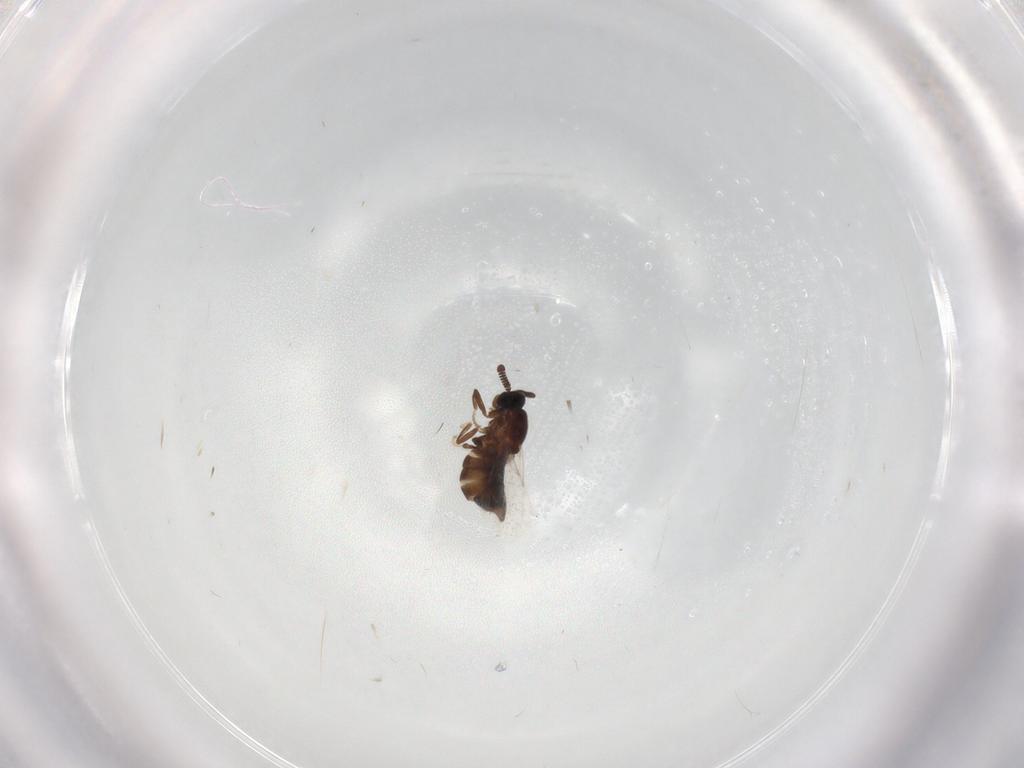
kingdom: Animalia
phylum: Arthropoda
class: Insecta
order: Diptera
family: Scatopsidae
